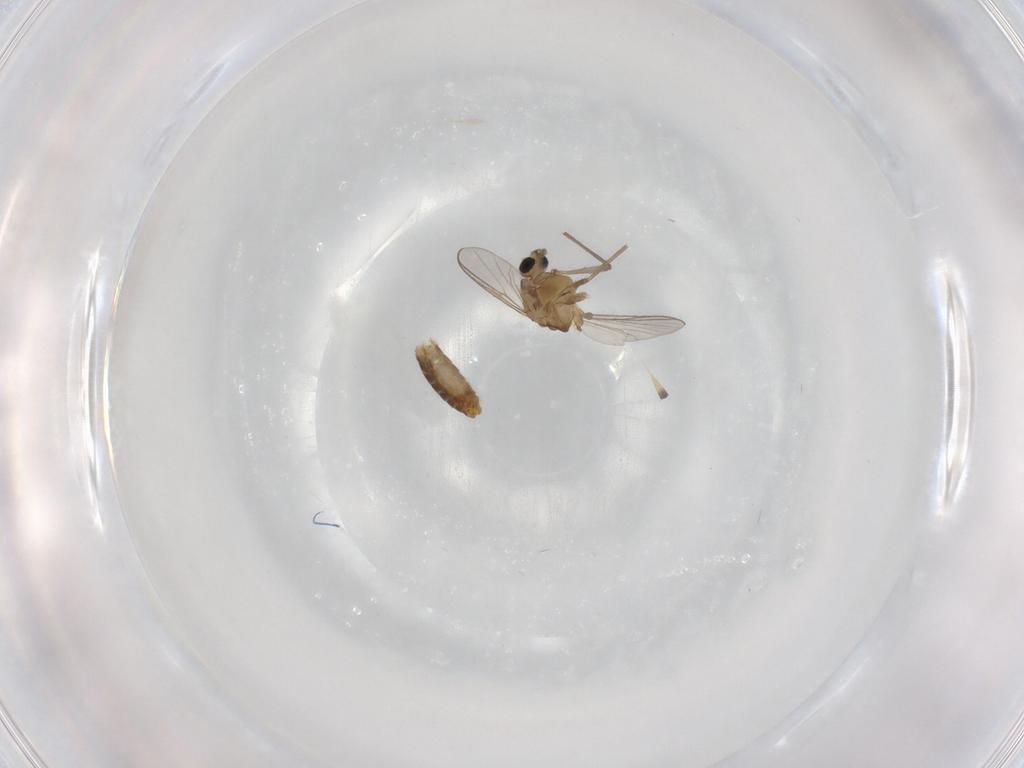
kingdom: Animalia
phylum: Arthropoda
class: Insecta
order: Diptera
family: Chironomidae
